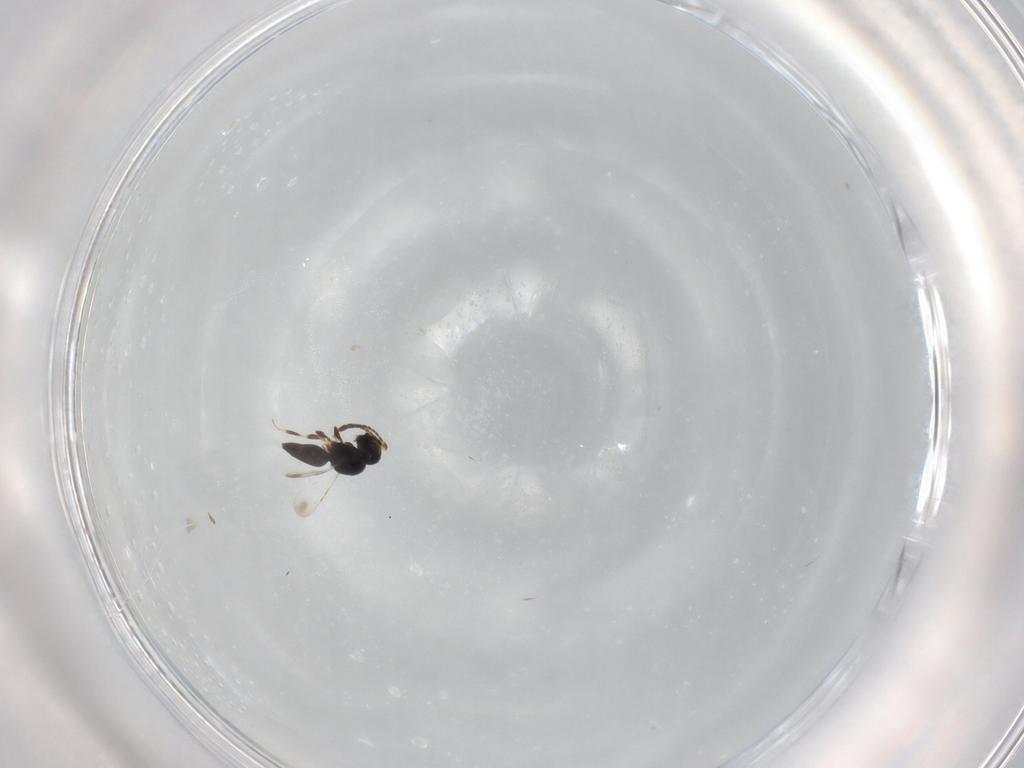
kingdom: Animalia
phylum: Arthropoda
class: Insecta
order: Hymenoptera
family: Ceraphronidae
